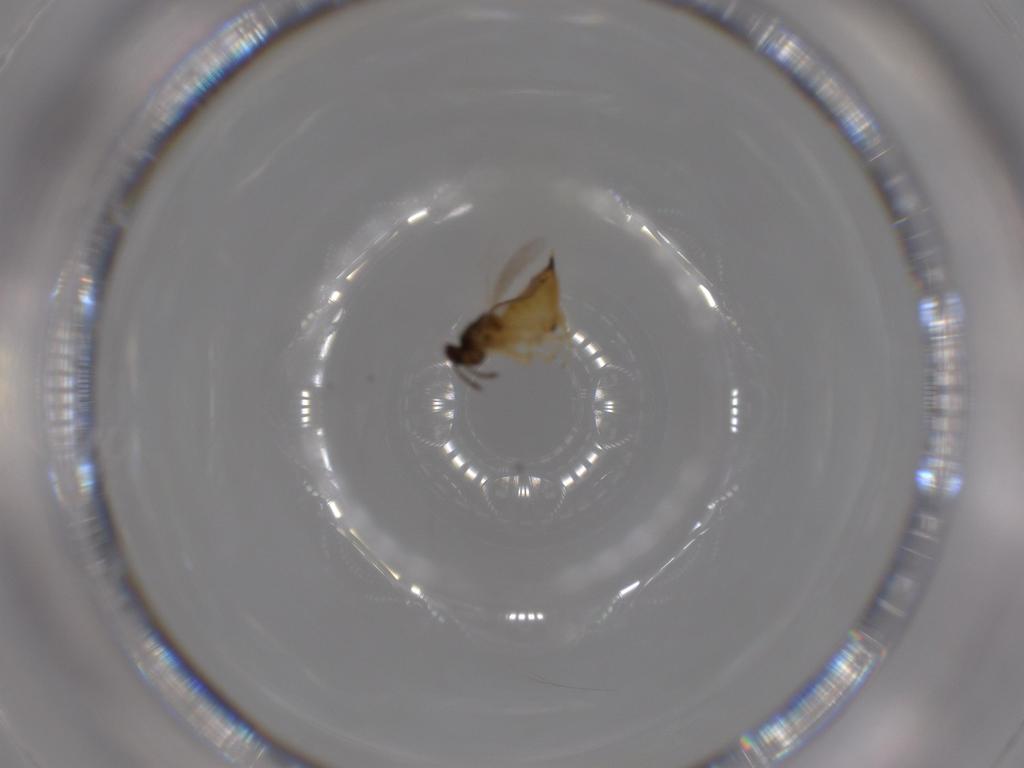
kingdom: Animalia
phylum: Arthropoda
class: Insecta
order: Hymenoptera
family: Eulophidae
